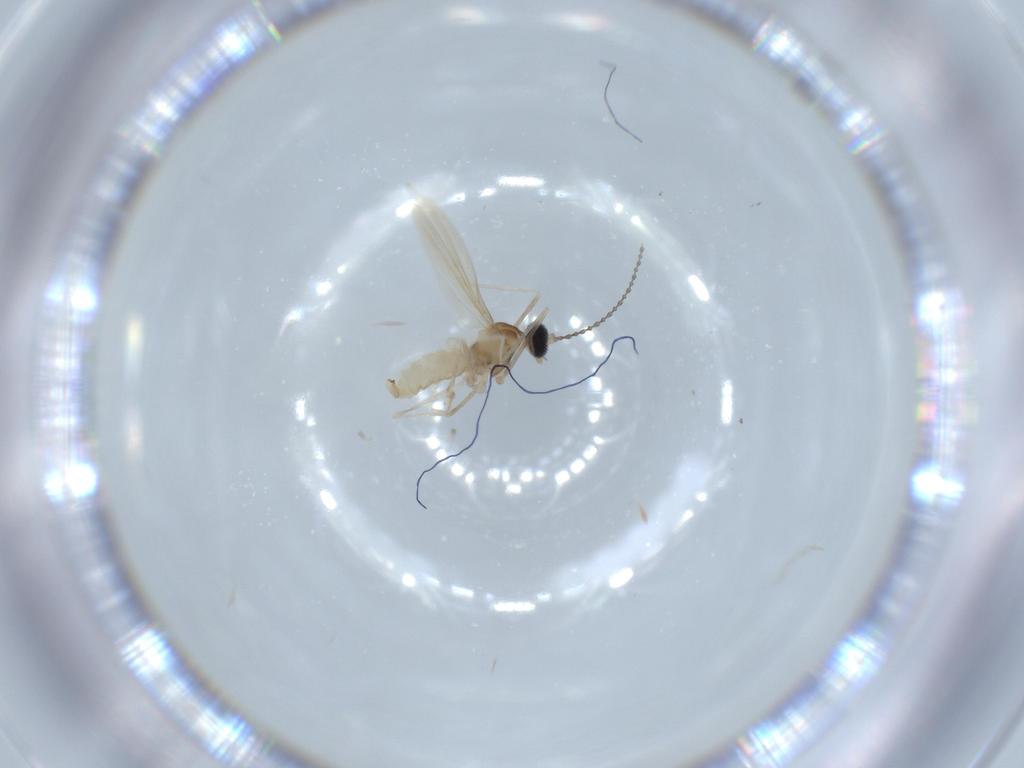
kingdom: Animalia
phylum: Arthropoda
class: Insecta
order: Diptera
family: Cecidomyiidae
